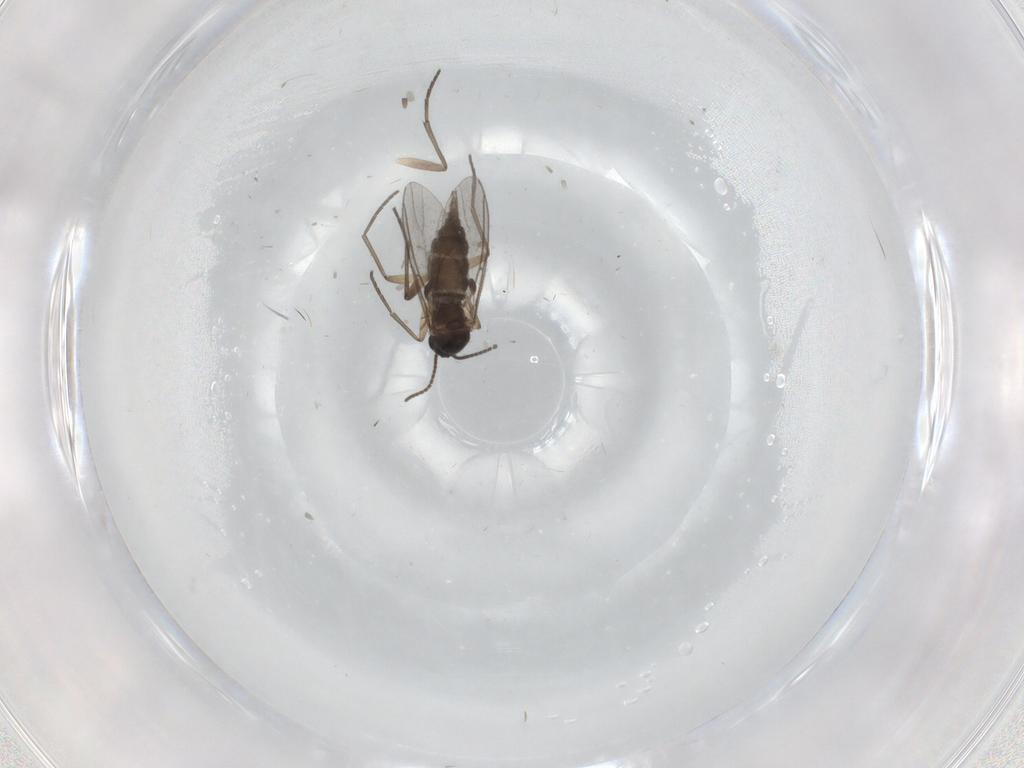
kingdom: Animalia
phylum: Arthropoda
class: Insecta
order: Diptera
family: Sciaridae
